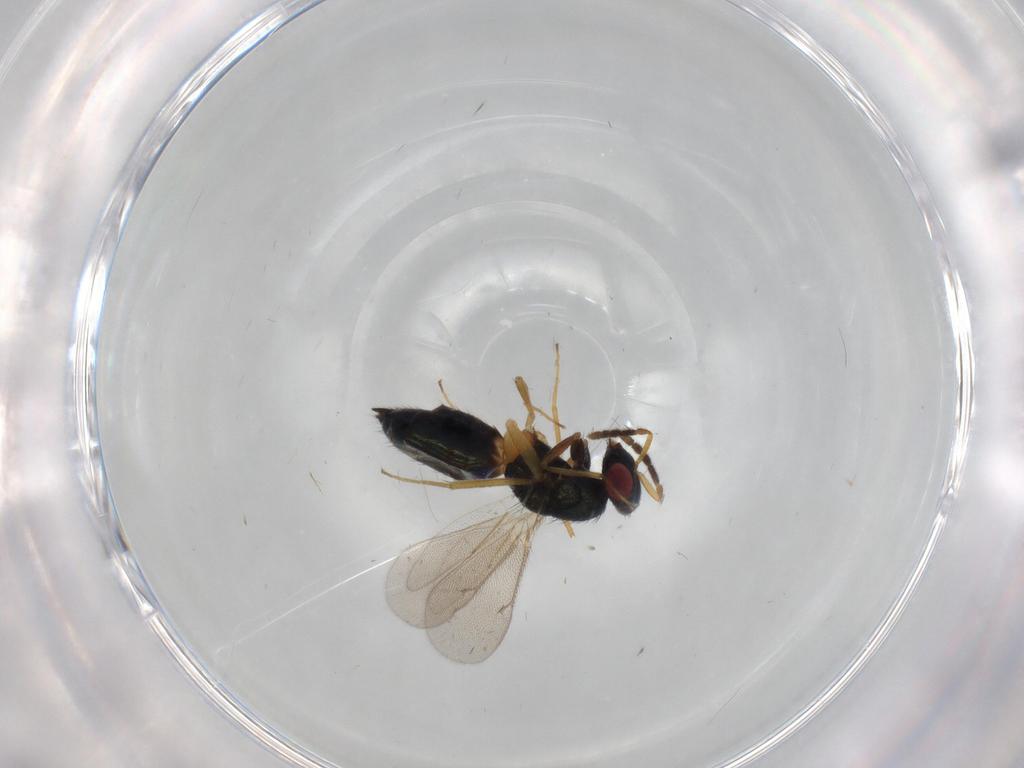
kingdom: Animalia
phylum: Arthropoda
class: Insecta
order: Hymenoptera
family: Eulophidae
